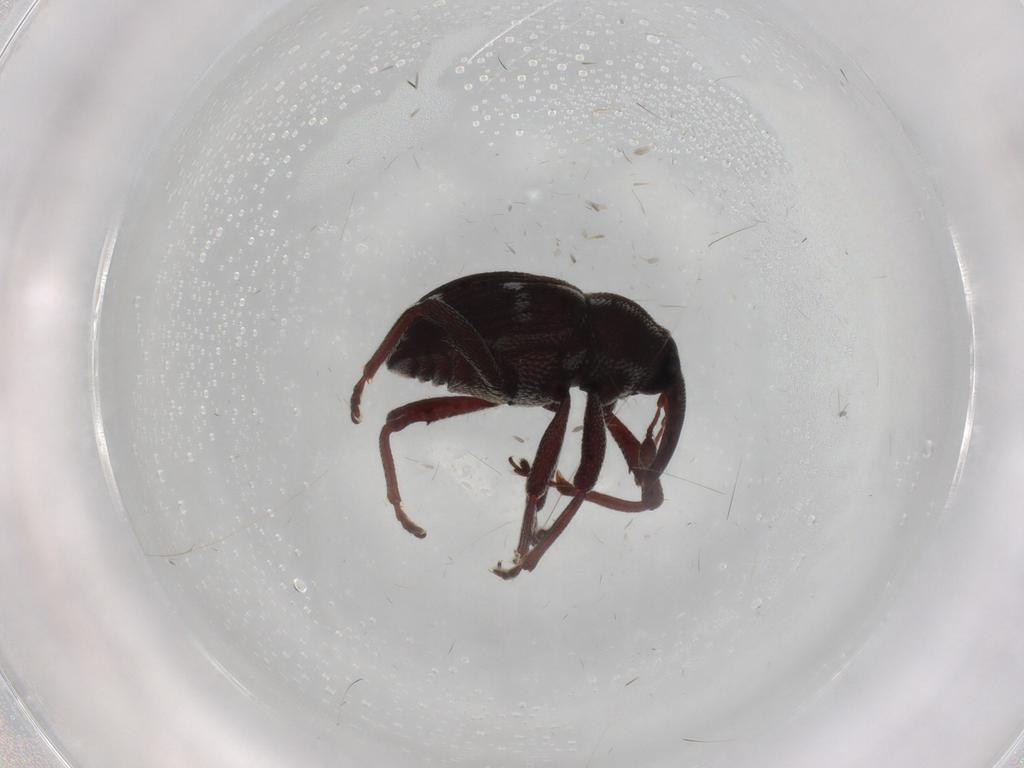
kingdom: Animalia
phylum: Arthropoda
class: Insecta
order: Coleoptera
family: Curculionidae
